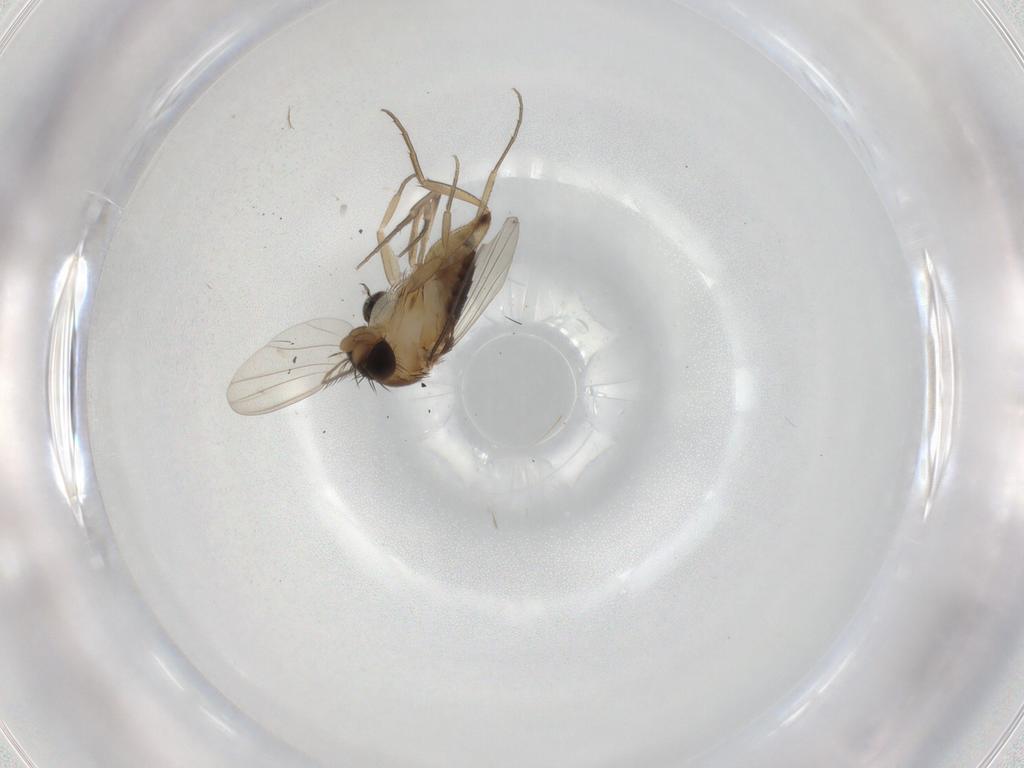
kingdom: Animalia
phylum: Arthropoda
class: Insecta
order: Diptera
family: Phoridae
